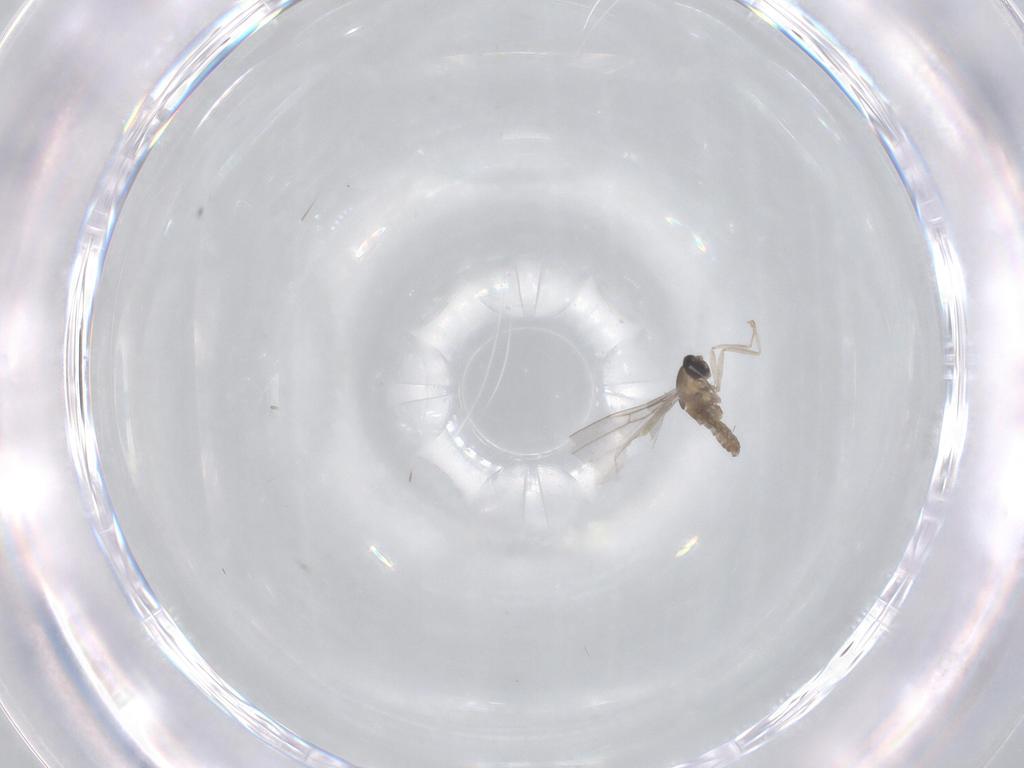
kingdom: Animalia
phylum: Arthropoda
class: Insecta
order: Diptera
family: Cecidomyiidae
